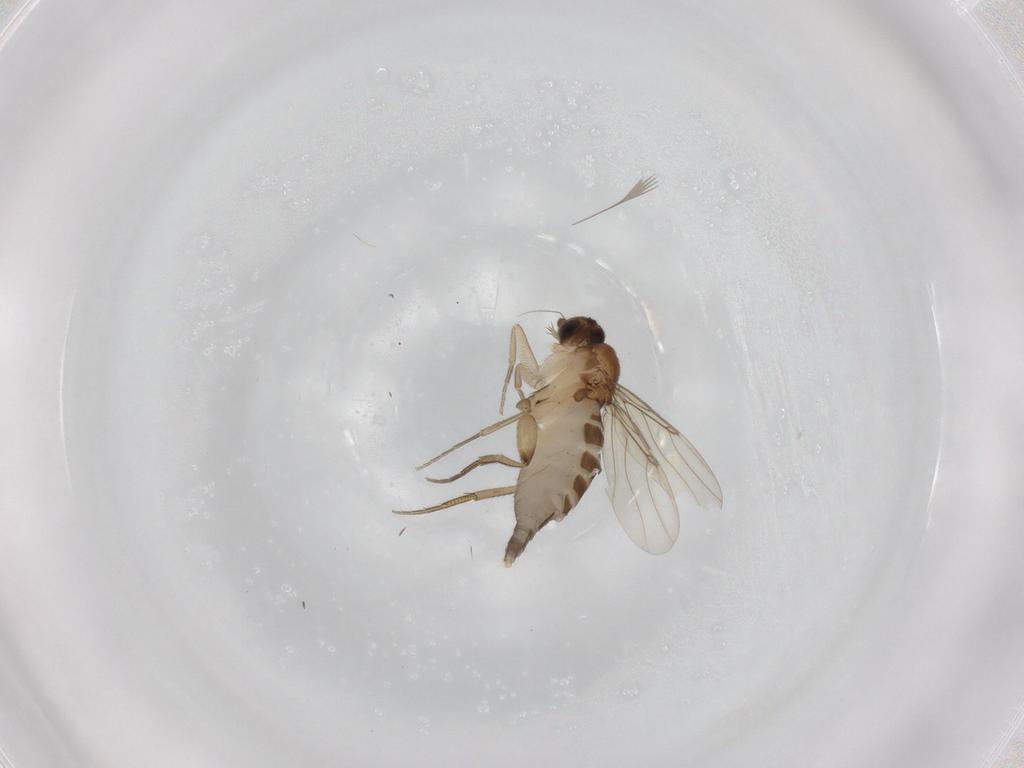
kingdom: Animalia
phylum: Arthropoda
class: Insecta
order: Diptera
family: Phoridae
